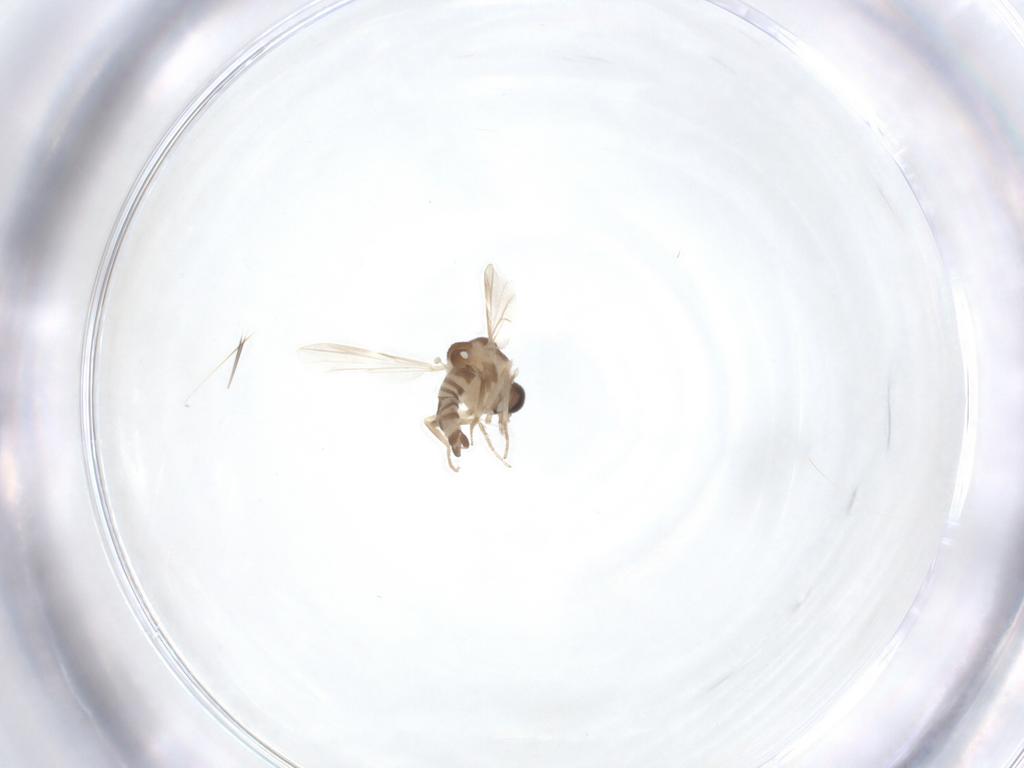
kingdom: Animalia
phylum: Arthropoda
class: Insecta
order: Diptera
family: Ceratopogonidae
